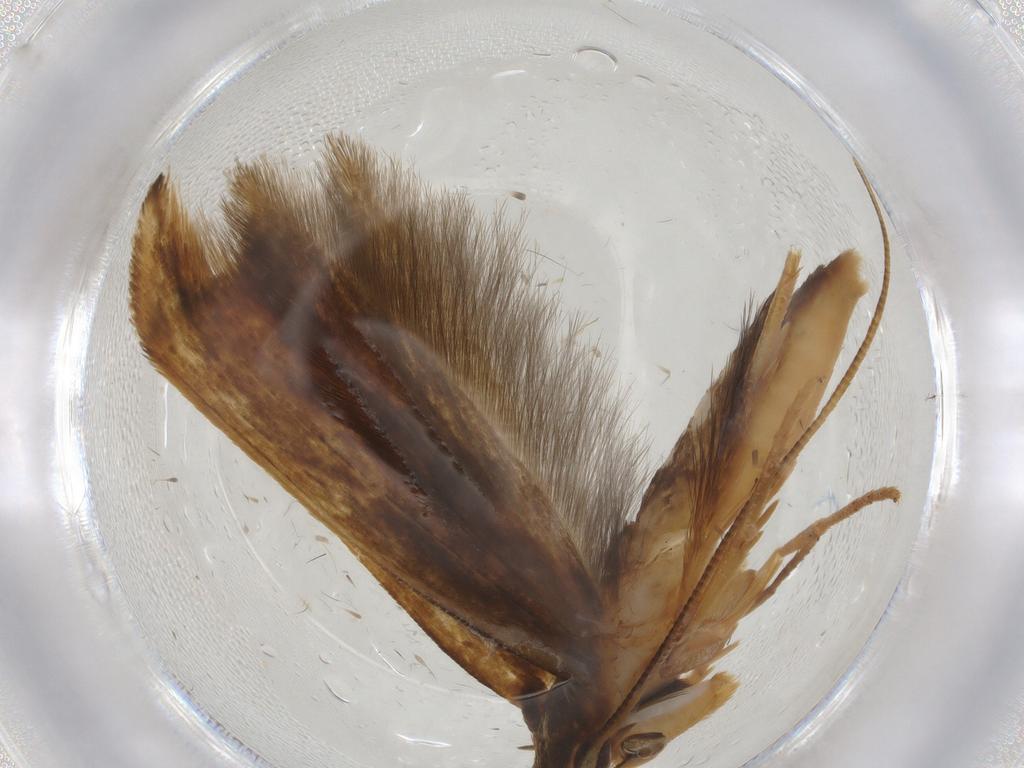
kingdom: Animalia
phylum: Arthropoda
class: Insecta
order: Lepidoptera
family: Tineidae
